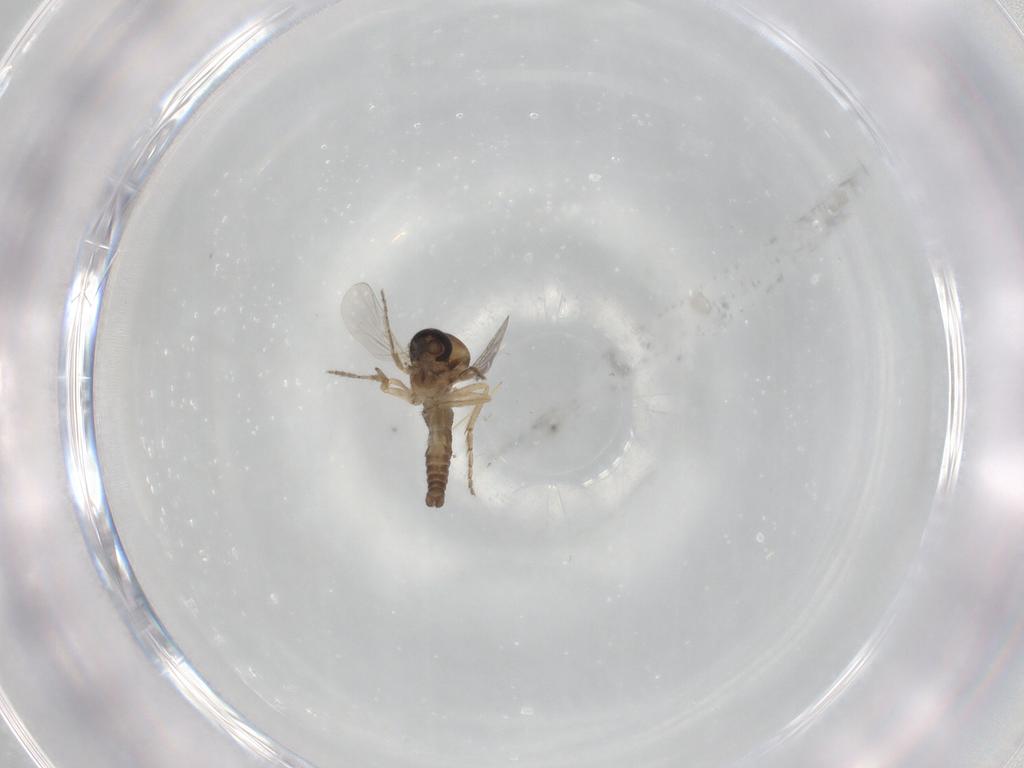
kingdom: Animalia
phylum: Arthropoda
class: Insecta
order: Diptera
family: Ceratopogonidae
